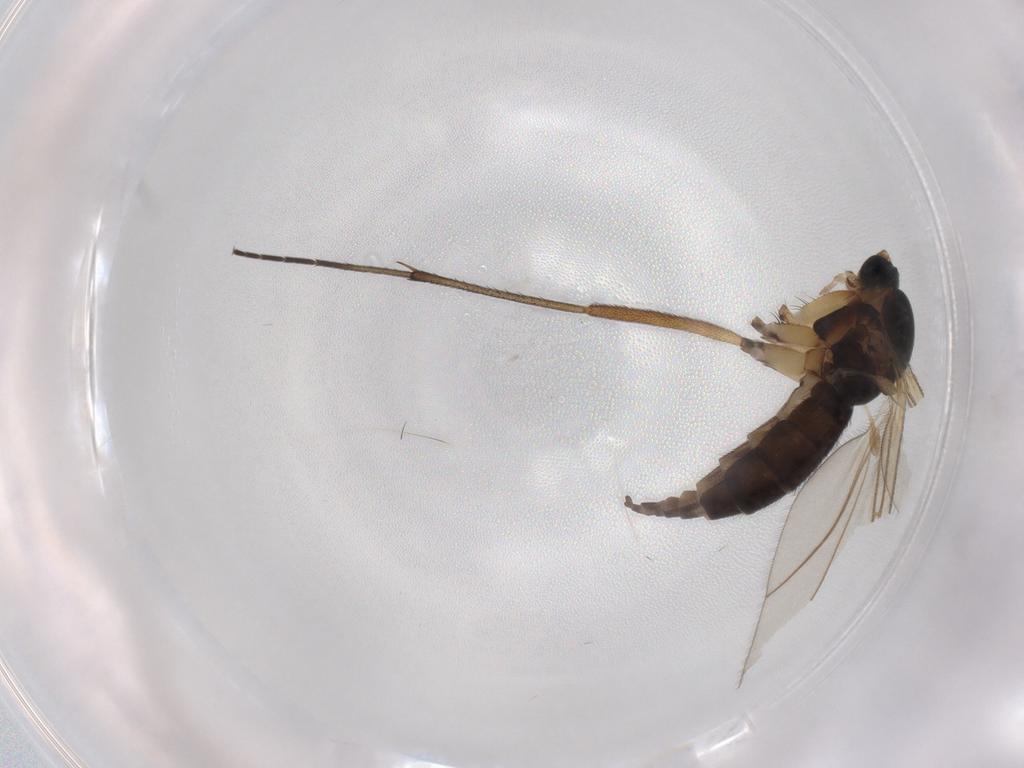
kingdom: Animalia
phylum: Arthropoda
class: Insecta
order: Diptera
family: Sciaridae
